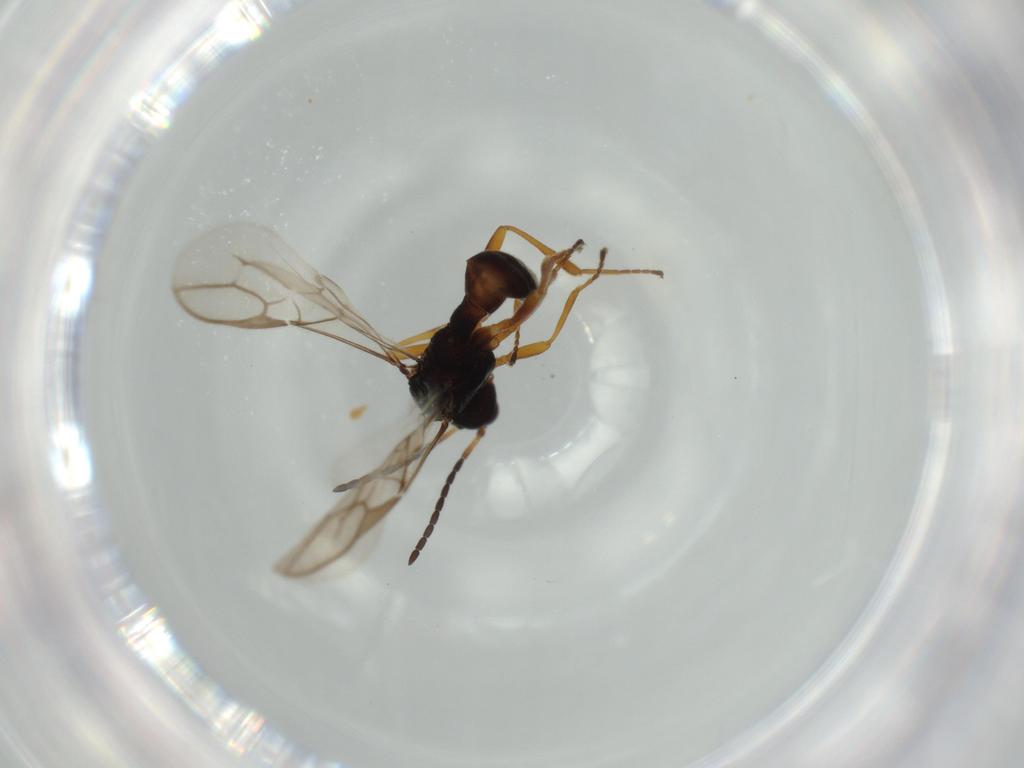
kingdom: Animalia
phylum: Arthropoda
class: Insecta
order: Hymenoptera
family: Braconidae
